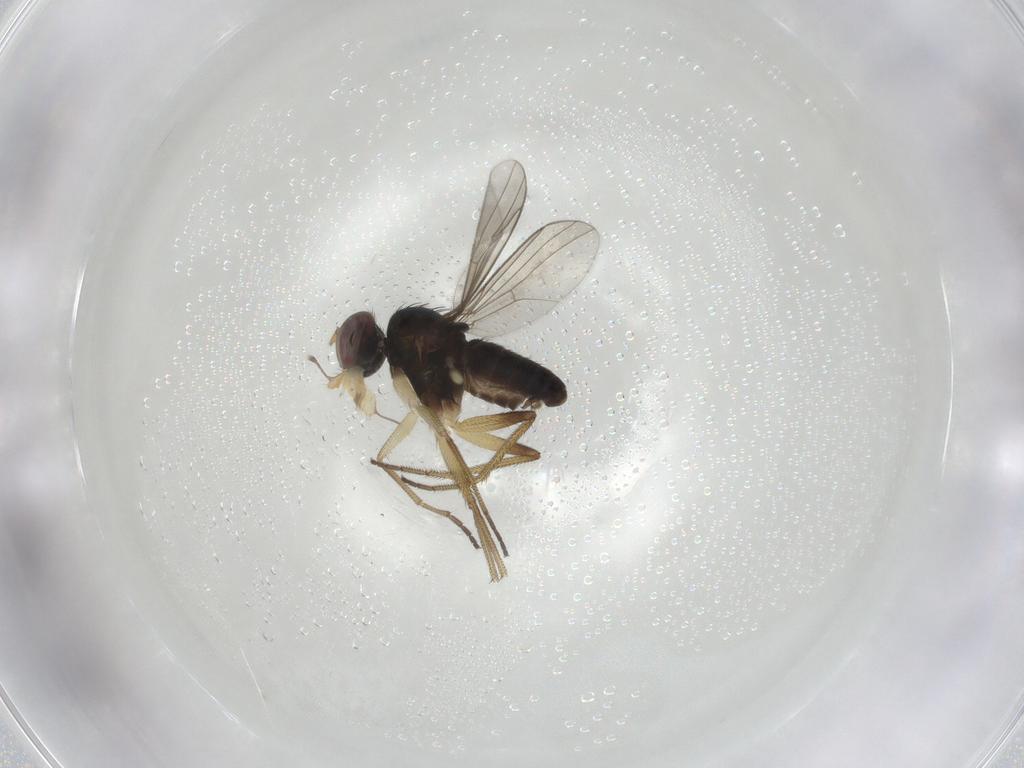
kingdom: Animalia
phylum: Arthropoda
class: Insecta
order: Diptera
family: Dolichopodidae
